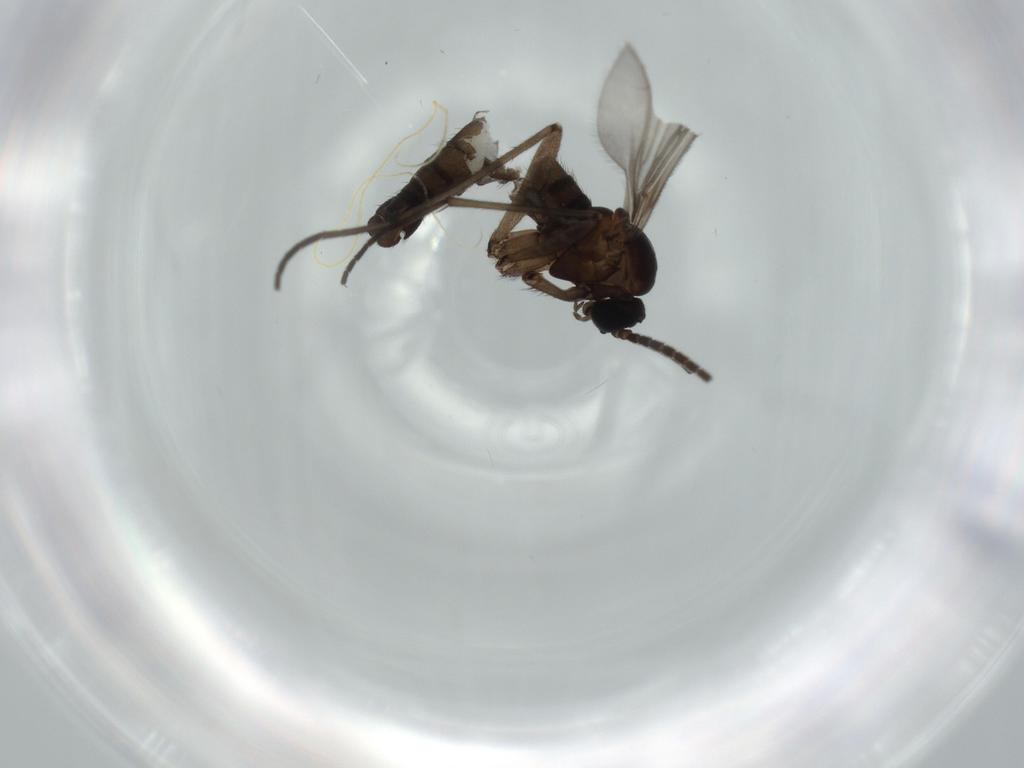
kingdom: Animalia
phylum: Arthropoda
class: Insecta
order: Diptera
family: Sciaridae
